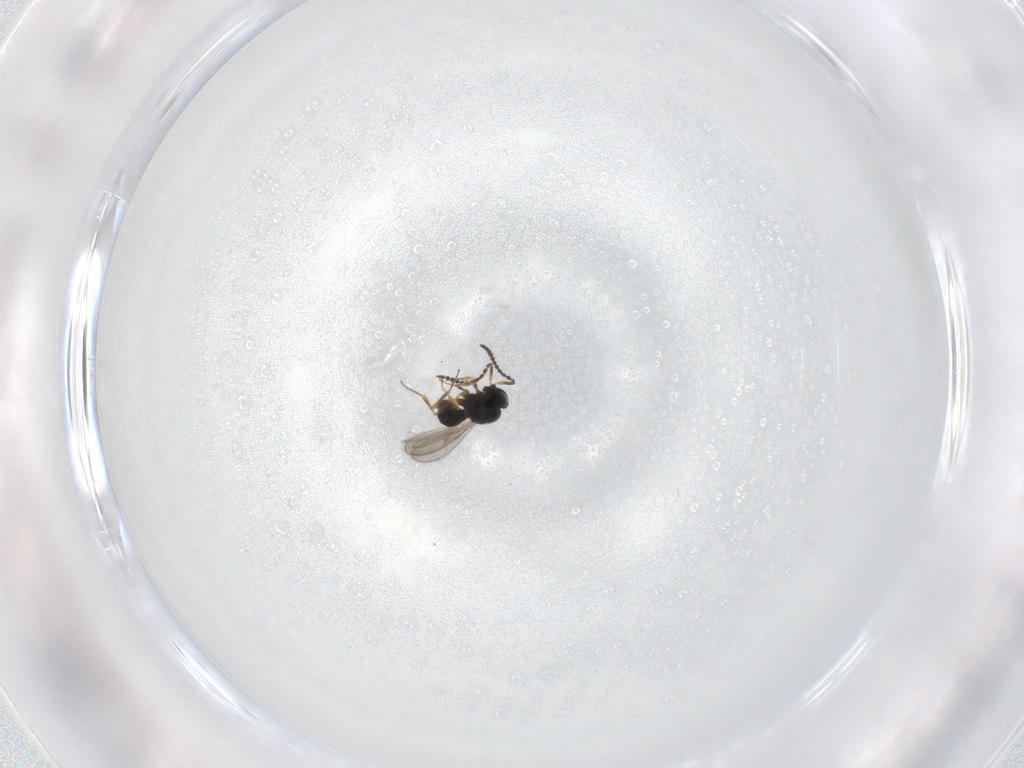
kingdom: Animalia
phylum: Arthropoda
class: Insecta
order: Hymenoptera
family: Scelionidae
